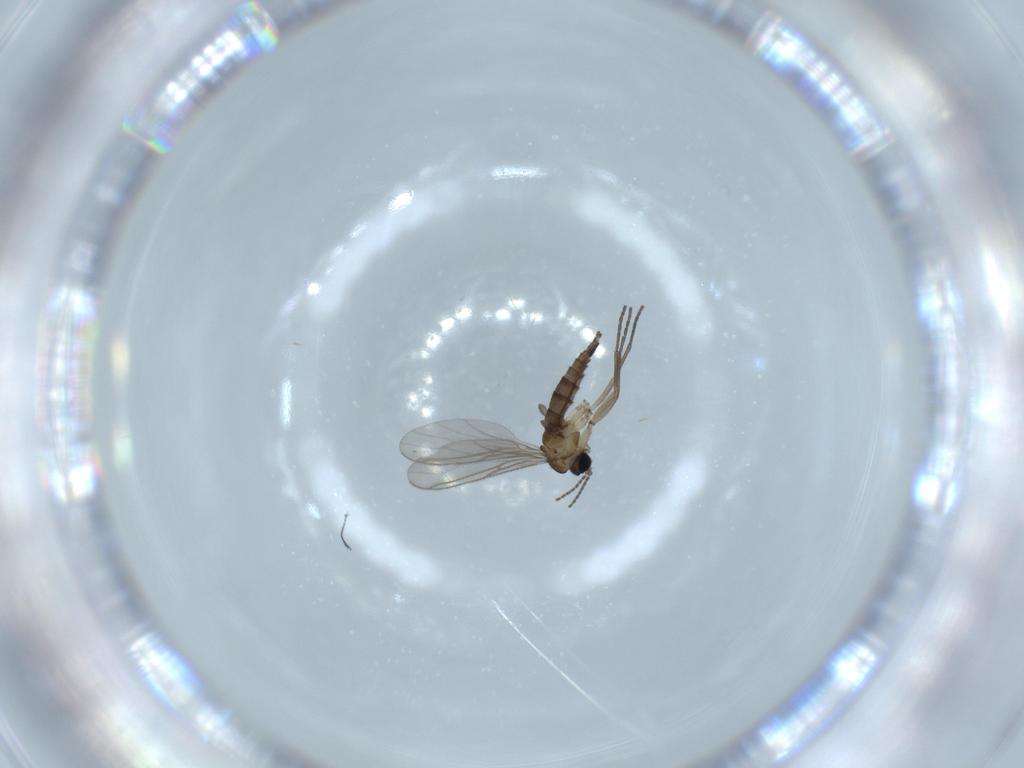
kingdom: Animalia
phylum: Arthropoda
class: Insecta
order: Diptera
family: Sciaridae
